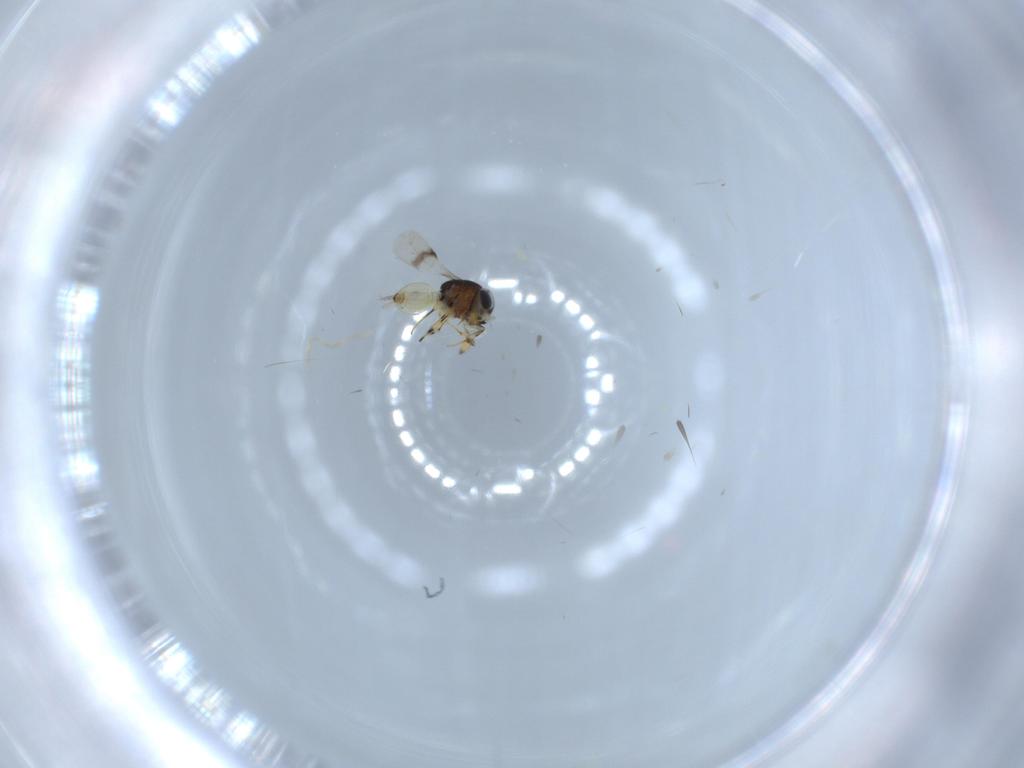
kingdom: Animalia
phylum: Arthropoda
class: Insecta
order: Hymenoptera
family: Scelionidae
